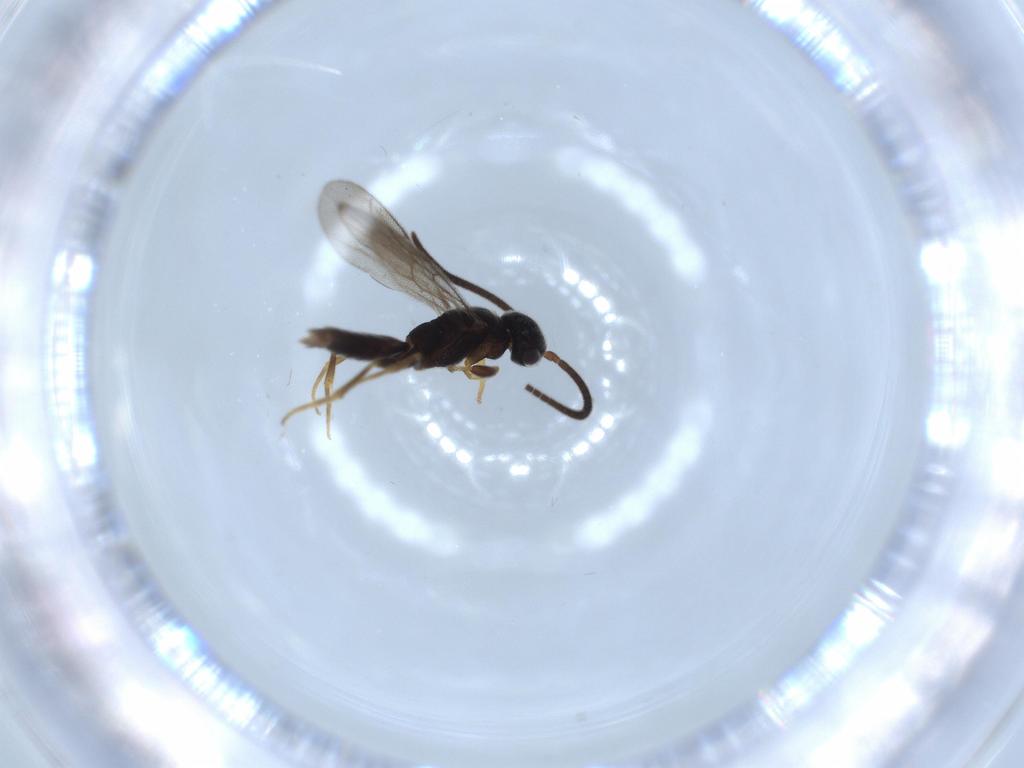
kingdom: Animalia
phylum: Arthropoda
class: Insecta
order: Hymenoptera
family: Sclerogibbidae
